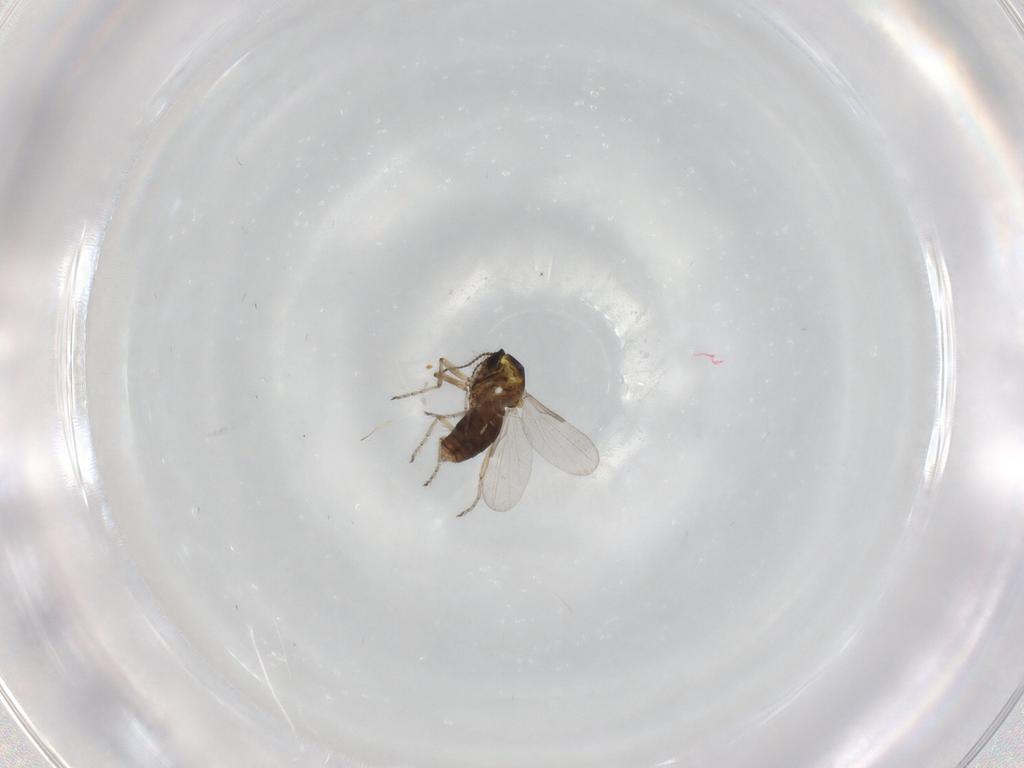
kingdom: Animalia
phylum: Arthropoda
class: Insecta
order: Diptera
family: Ceratopogonidae
